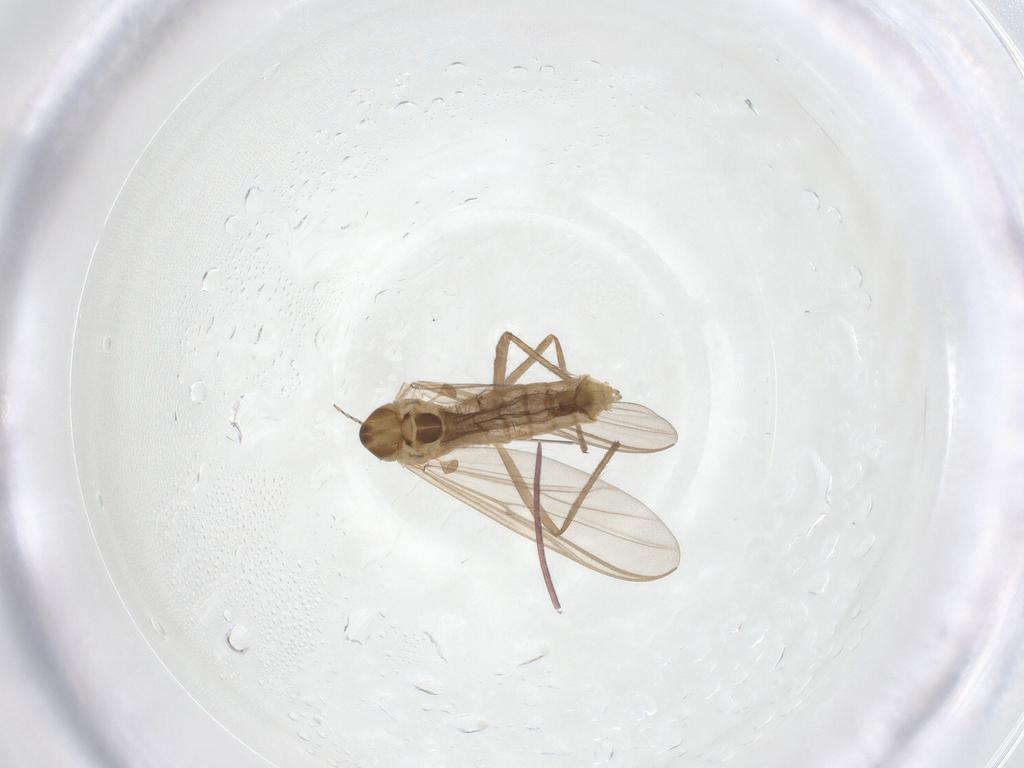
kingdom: Animalia
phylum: Arthropoda
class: Insecta
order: Diptera
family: Chironomidae
